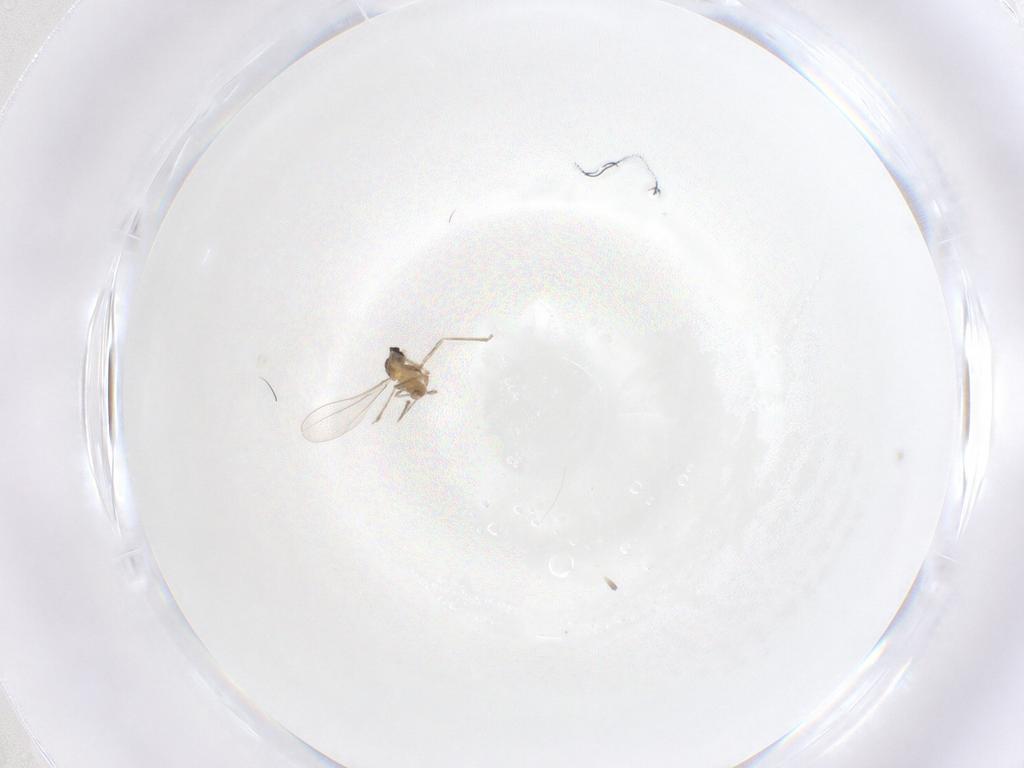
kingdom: Animalia
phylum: Arthropoda
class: Insecta
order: Diptera
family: Cecidomyiidae
